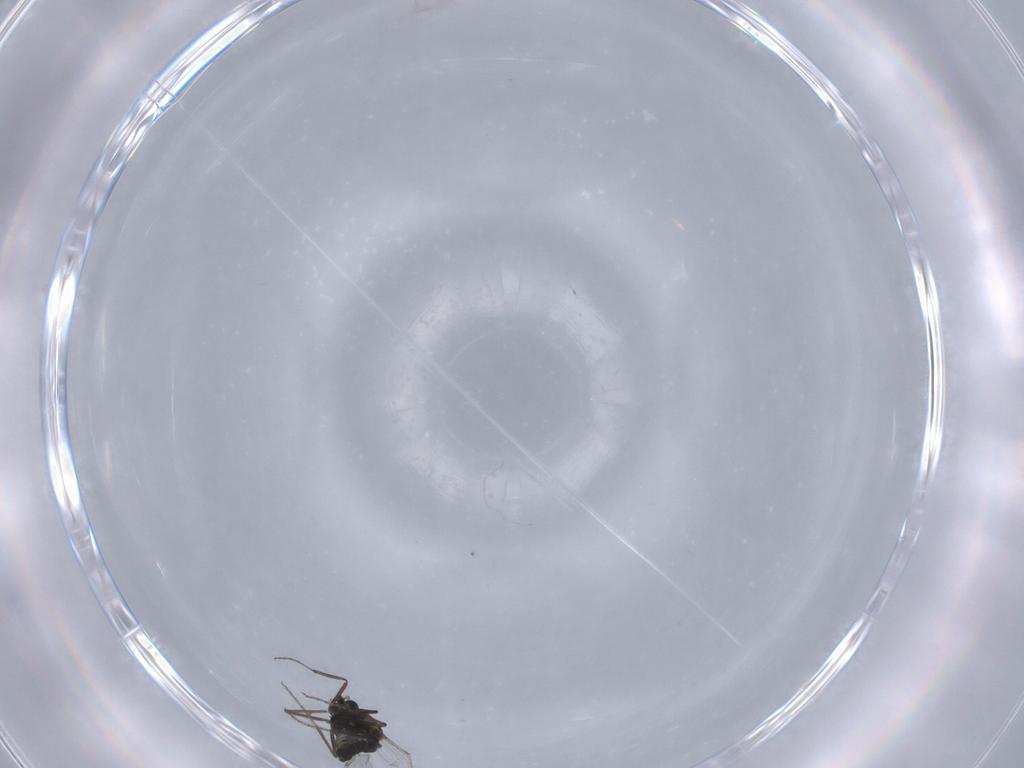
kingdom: Animalia
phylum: Arthropoda
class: Insecta
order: Diptera
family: Ceratopogonidae
